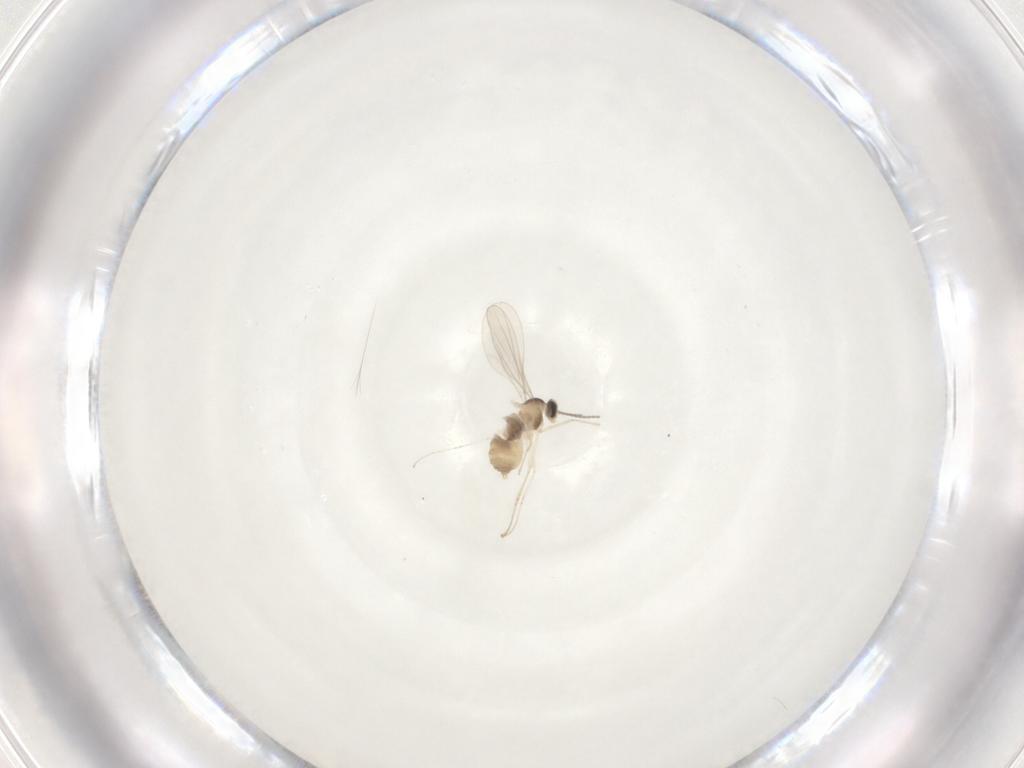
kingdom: Animalia
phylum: Arthropoda
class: Insecta
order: Diptera
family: Cecidomyiidae
